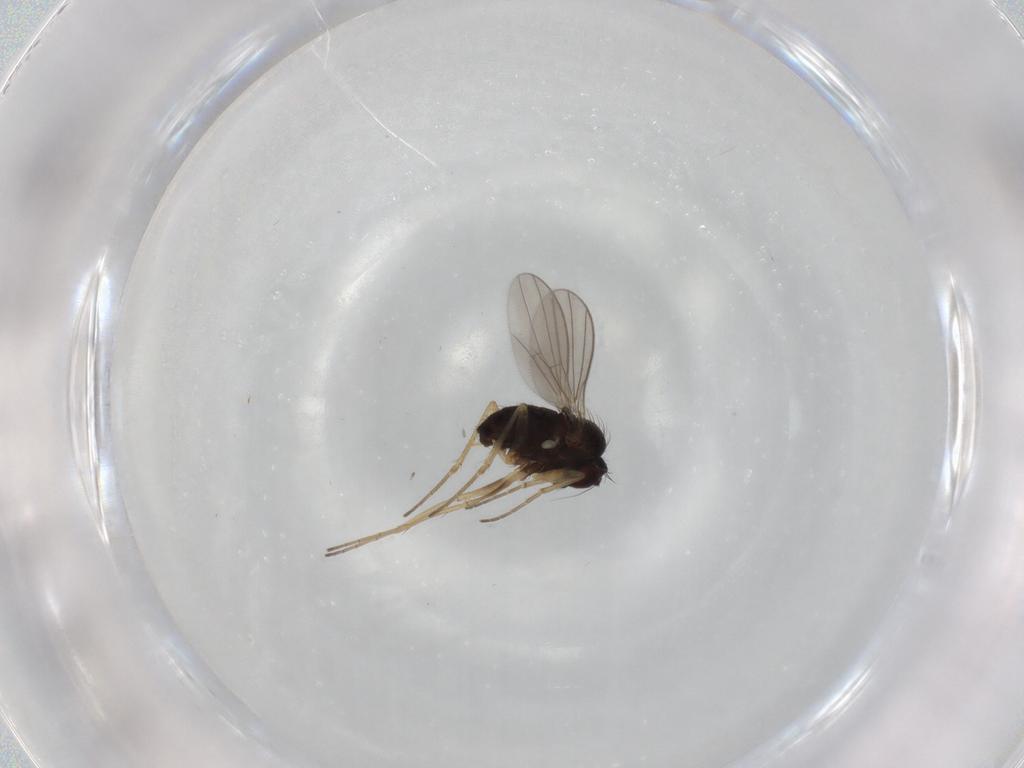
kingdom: Animalia
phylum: Arthropoda
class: Insecta
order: Diptera
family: Dolichopodidae
